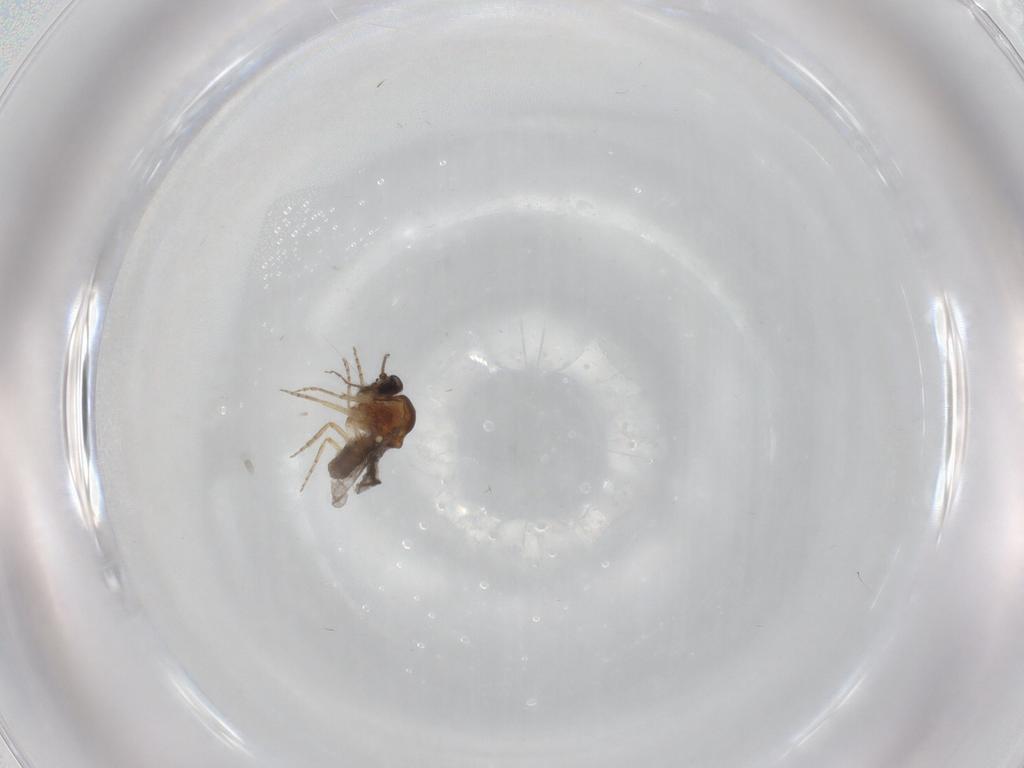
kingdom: Animalia
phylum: Arthropoda
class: Insecta
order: Diptera
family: Ceratopogonidae
